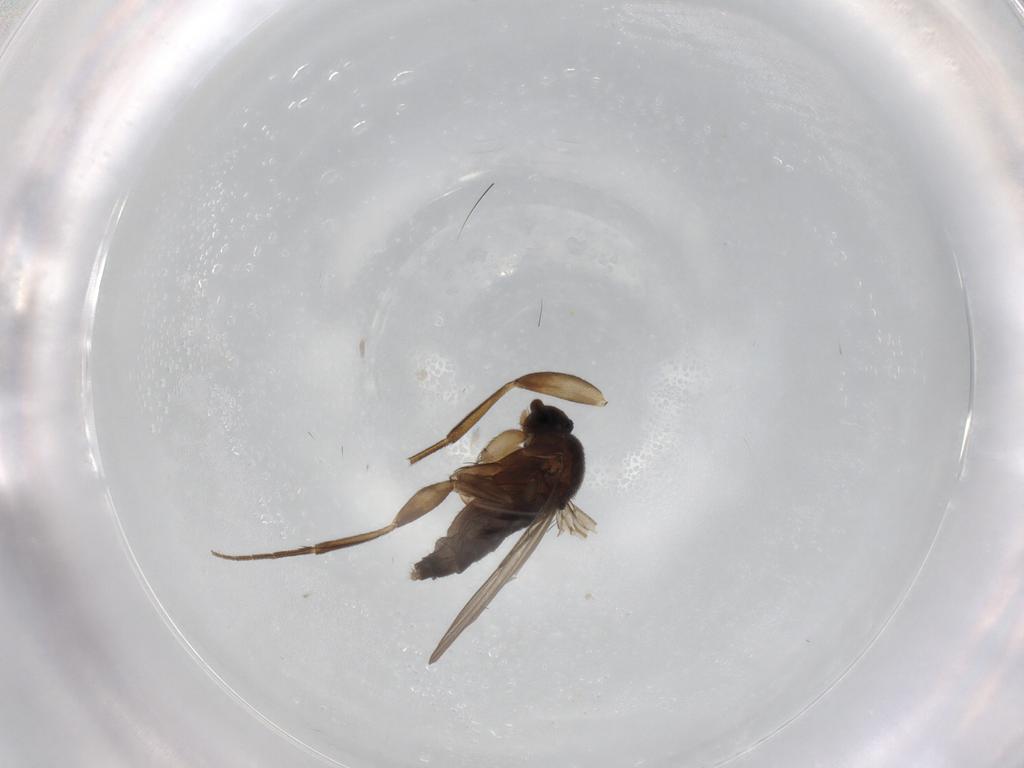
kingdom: Animalia
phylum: Arthropoda
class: Insecta
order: Diptera
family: Phoridae
